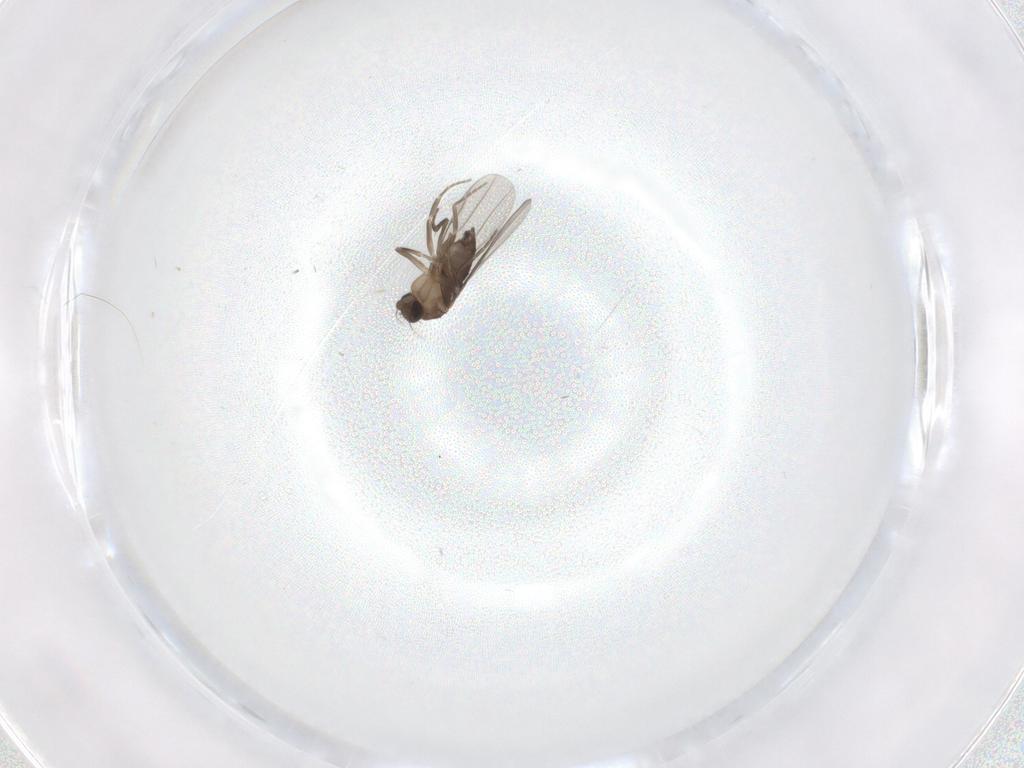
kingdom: Animalia
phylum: Arthropoda
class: Insecta
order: Diptera
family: Phoridae
